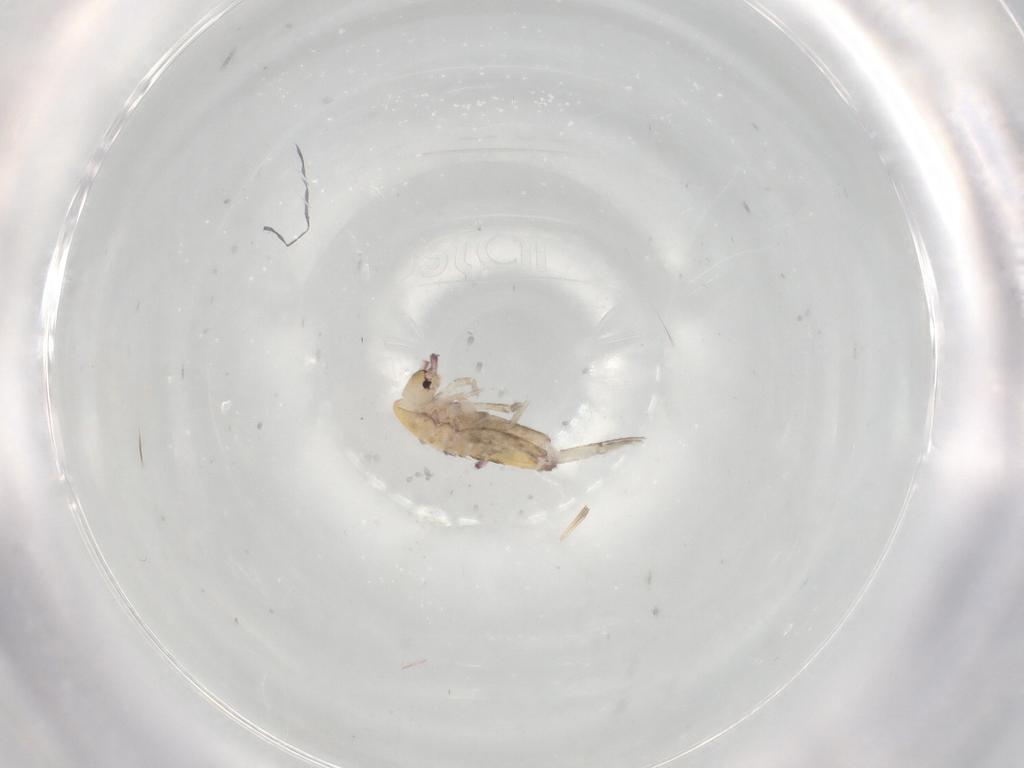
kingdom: Animalia
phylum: Arthropoda
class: Collembola
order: Entomobryomorpha
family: Entomobryidae
